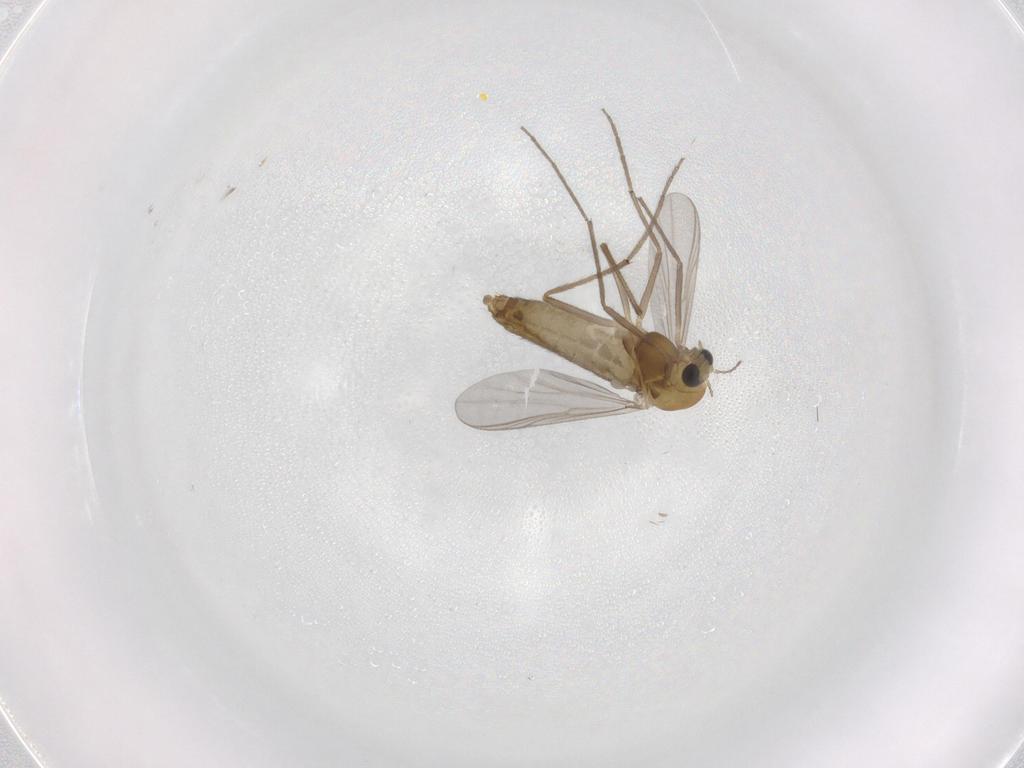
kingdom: Animalia
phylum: Arthropoda
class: Insecta
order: Diptera
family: Chironomidae
